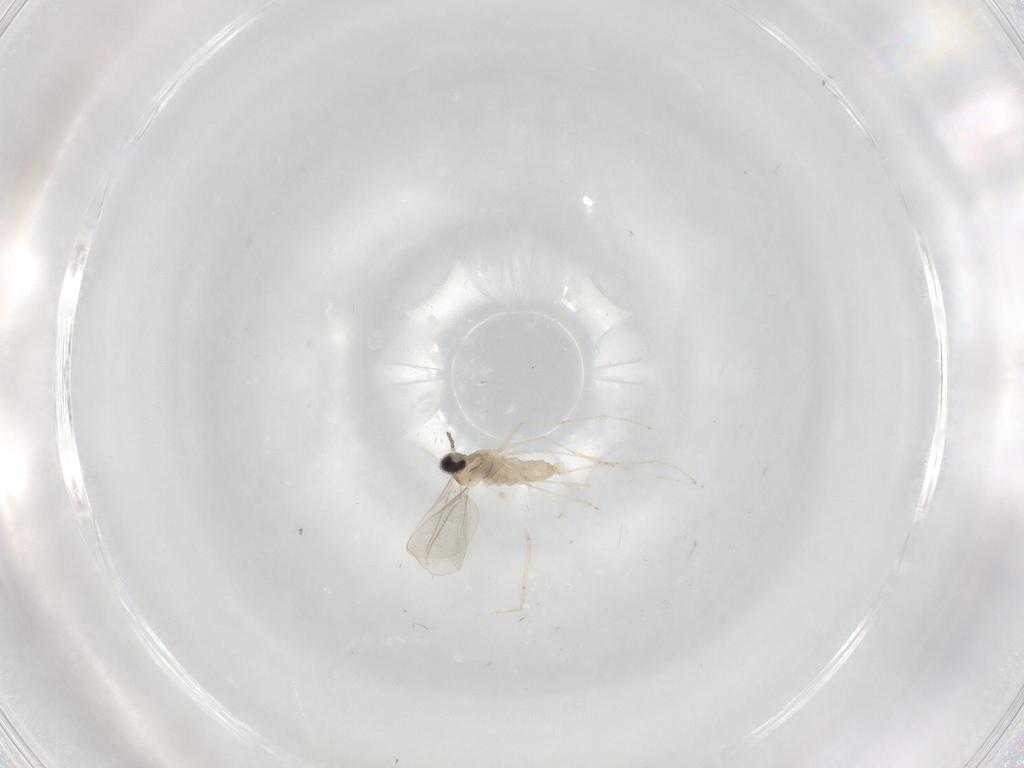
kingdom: Animalia
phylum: Arthropoda
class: Insecta
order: Diptera
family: Cecidomyiidae
